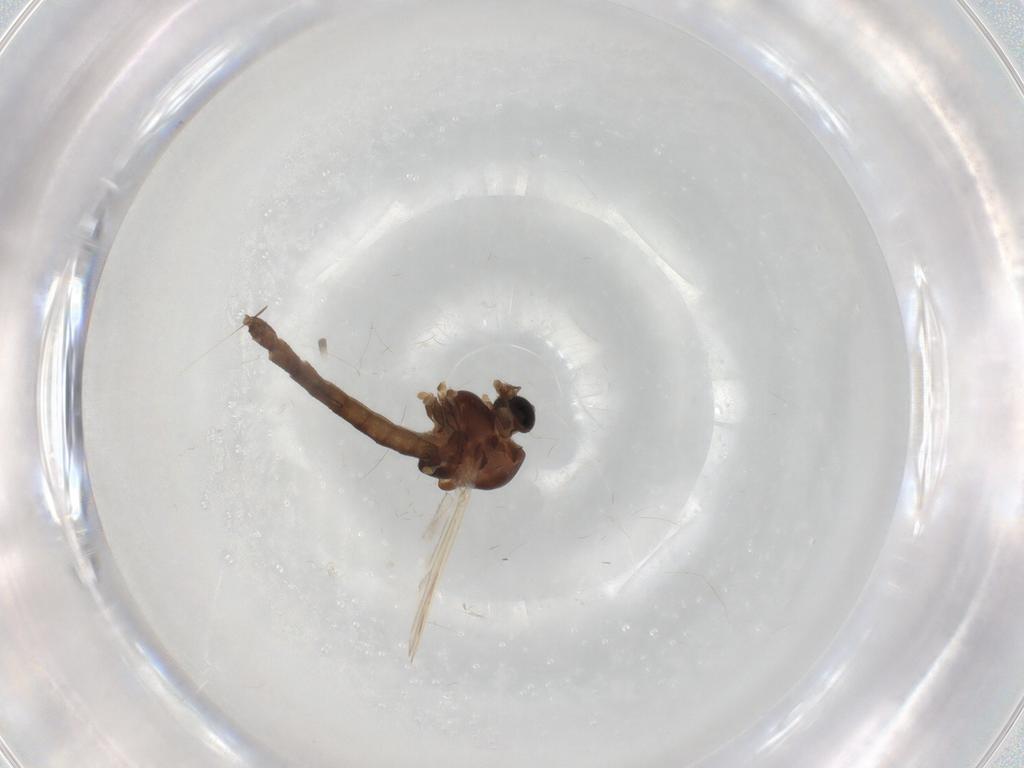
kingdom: Animalia
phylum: Arthropoda
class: Insecta
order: Diptera
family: Chironomidae
